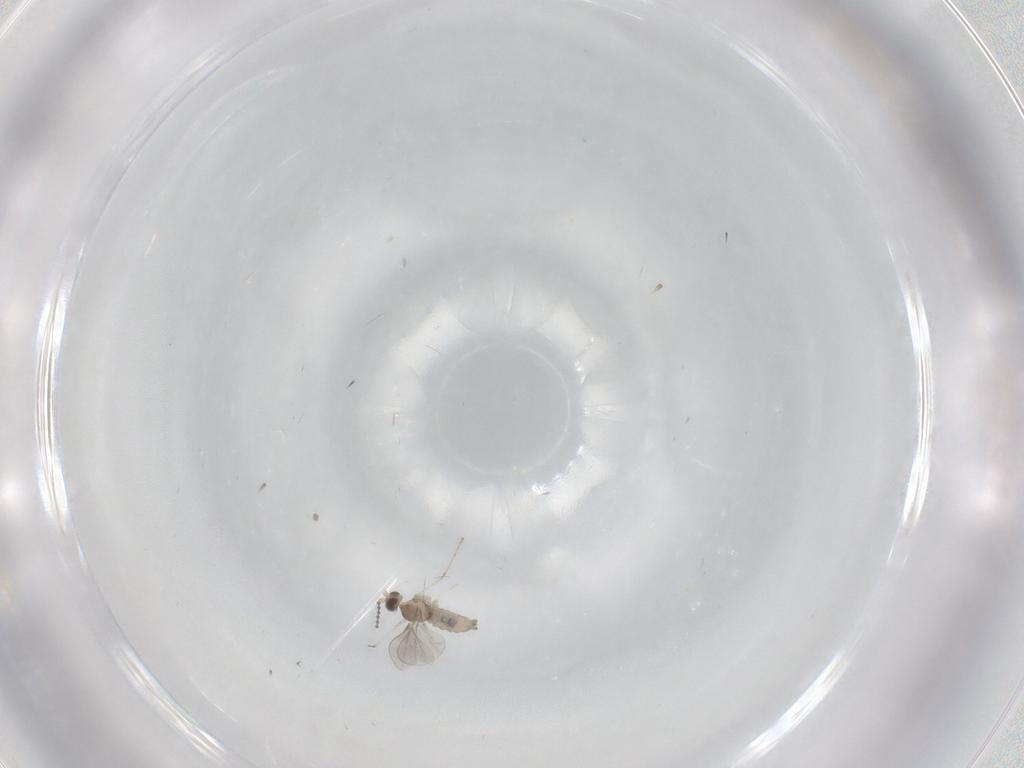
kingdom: Animalia
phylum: Arthropoda
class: Insecta
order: Diptera
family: Cecidomyiidae
